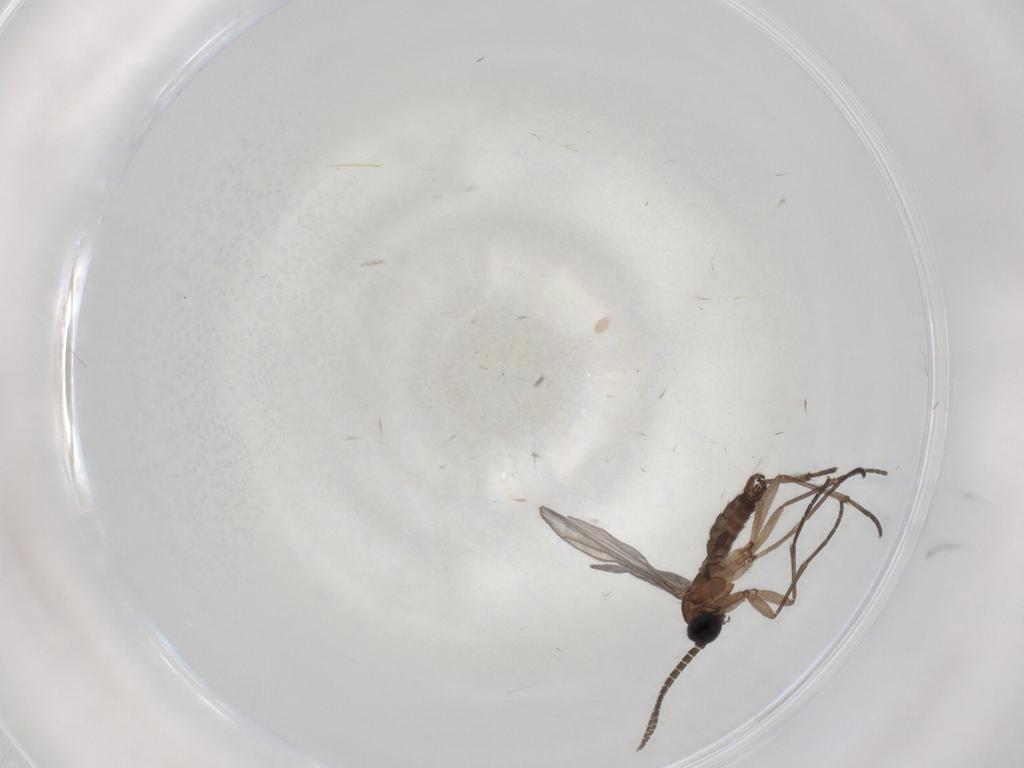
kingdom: Animalia
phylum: Arthropoda
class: Insecta
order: Diptera
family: Sciaridae
